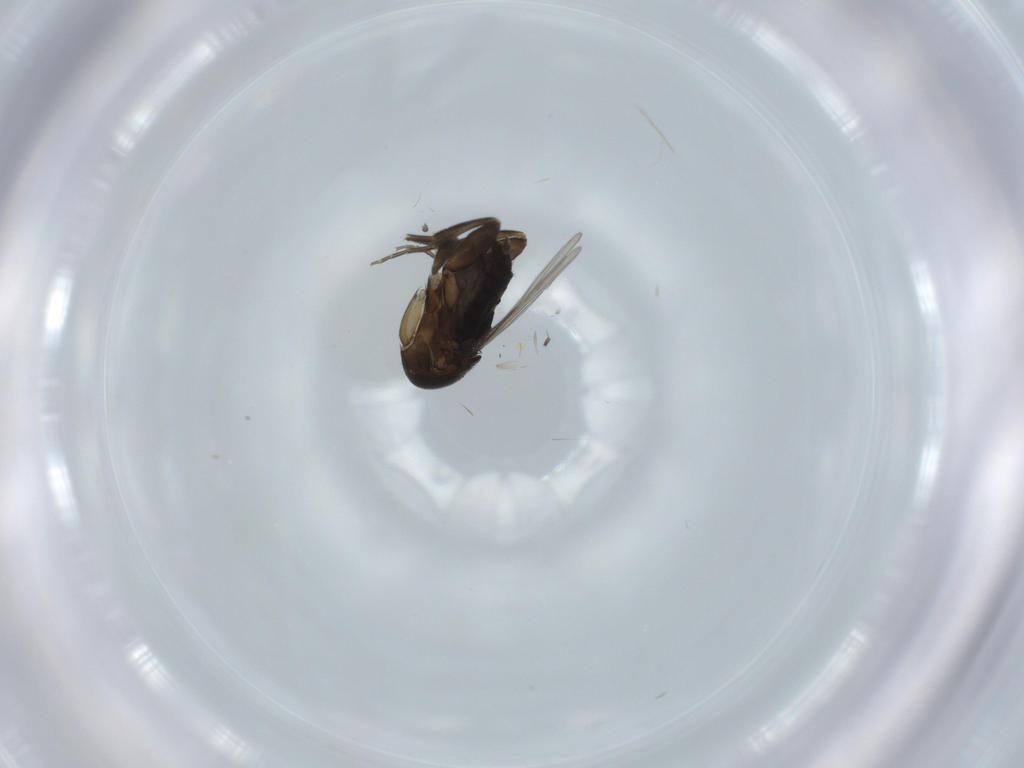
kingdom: Animalia
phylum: Arthropoda
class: Insecta
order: Diptera
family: Phoridae
